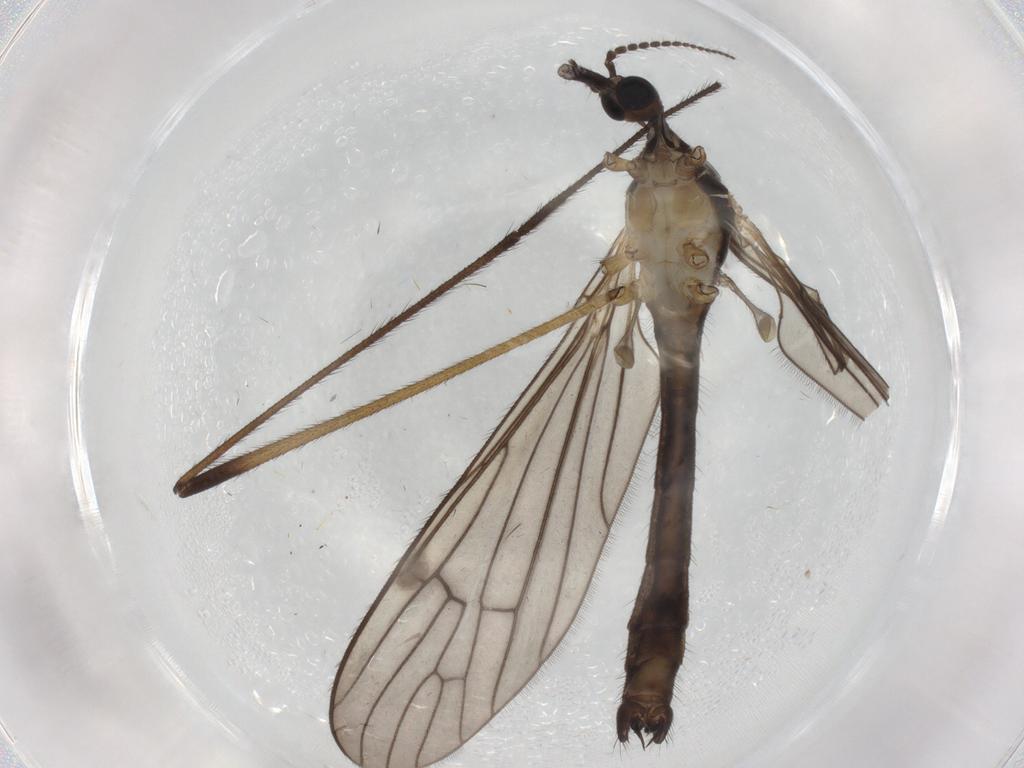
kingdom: Animalia
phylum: Arthropoda
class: Insecta
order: Diptera
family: Limoniidae
